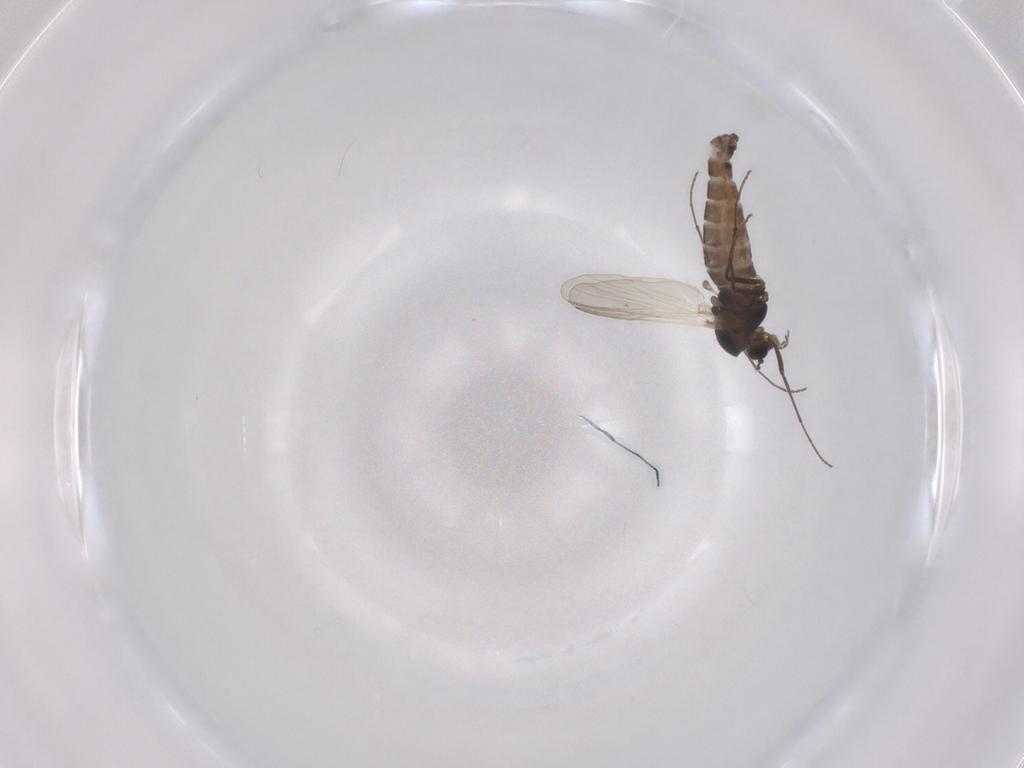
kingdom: Animalia
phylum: Arthropoda
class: Insecta
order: Diptera
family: Chironomidae
